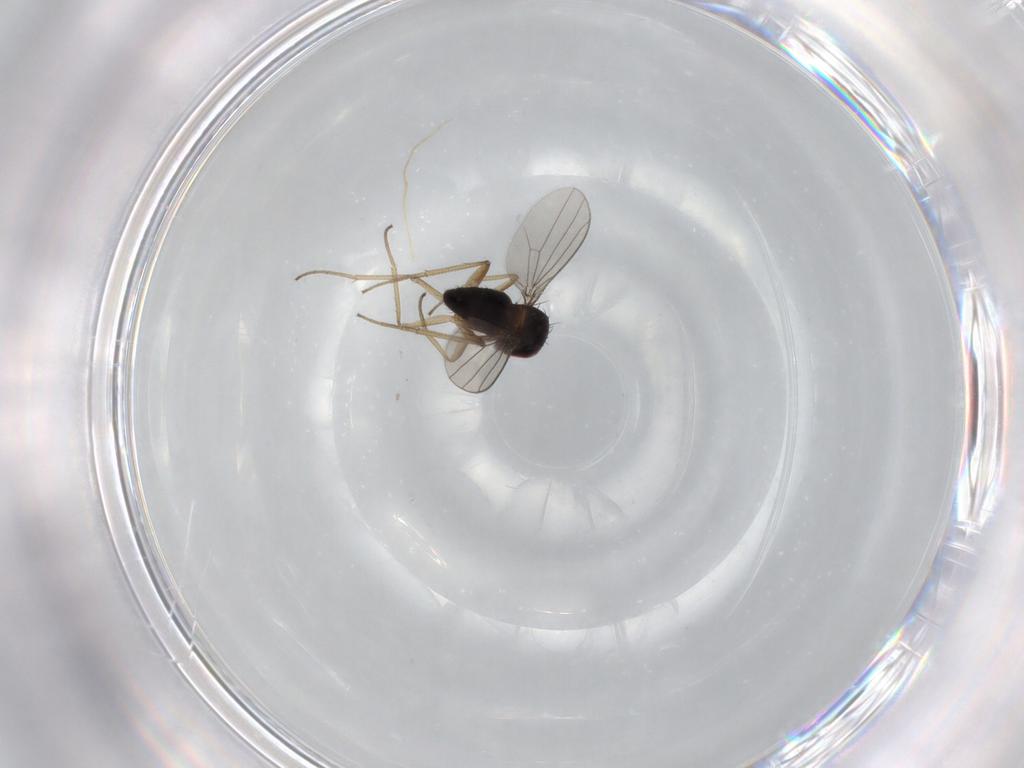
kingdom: Animalia
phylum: Arthropoda
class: Insecta
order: Diptera
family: Dolichopodidae
